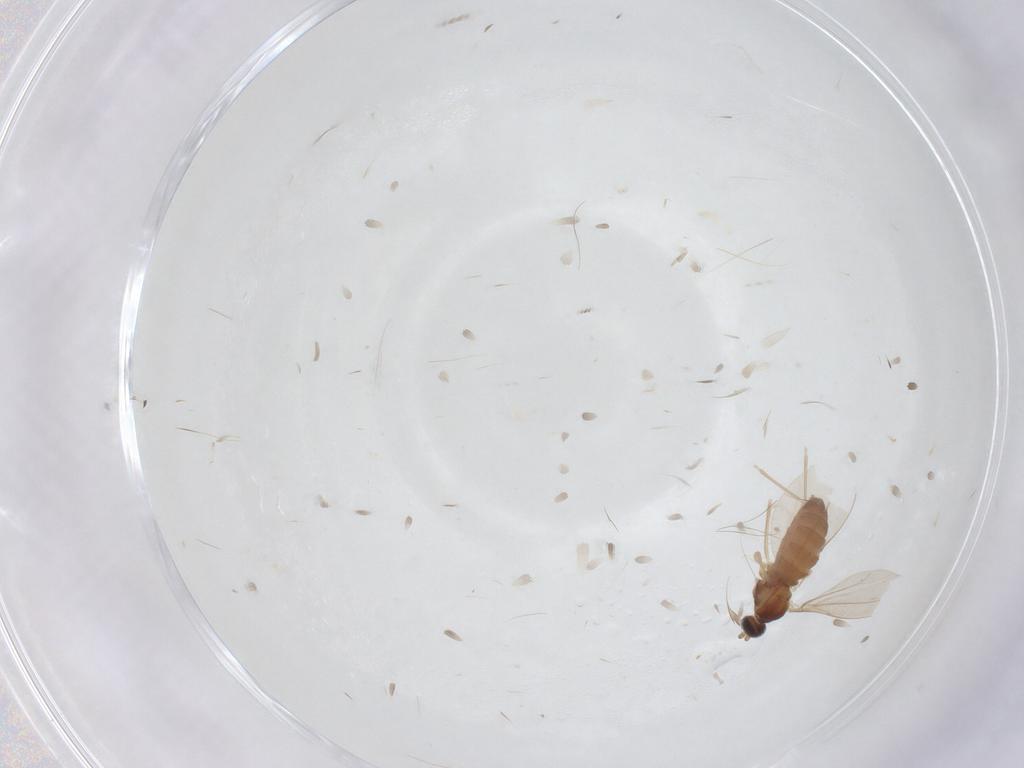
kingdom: Animalia
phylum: Arthropoda
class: Insecta
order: Diptera
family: Cecidomyiidae
